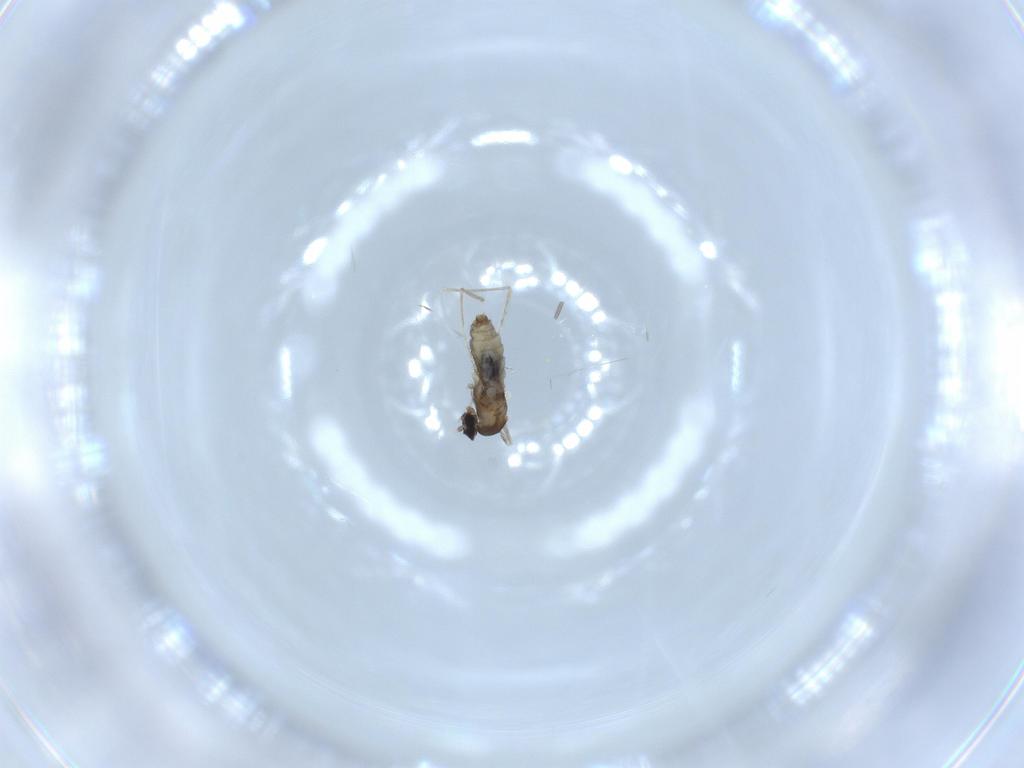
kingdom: Animalia
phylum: Arthropoda
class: Insecta
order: Diptera
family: Cecidomyiidae
